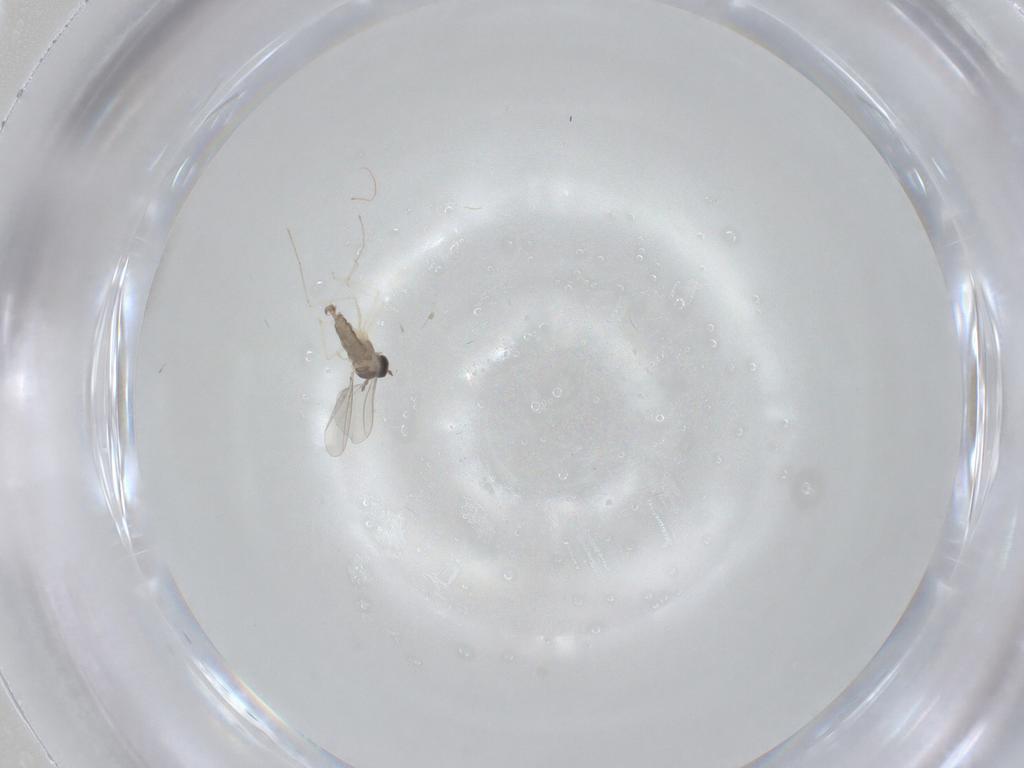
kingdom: Animalia
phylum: Arthropoda
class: Insecta
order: Diptera
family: Cecidomyiidae
